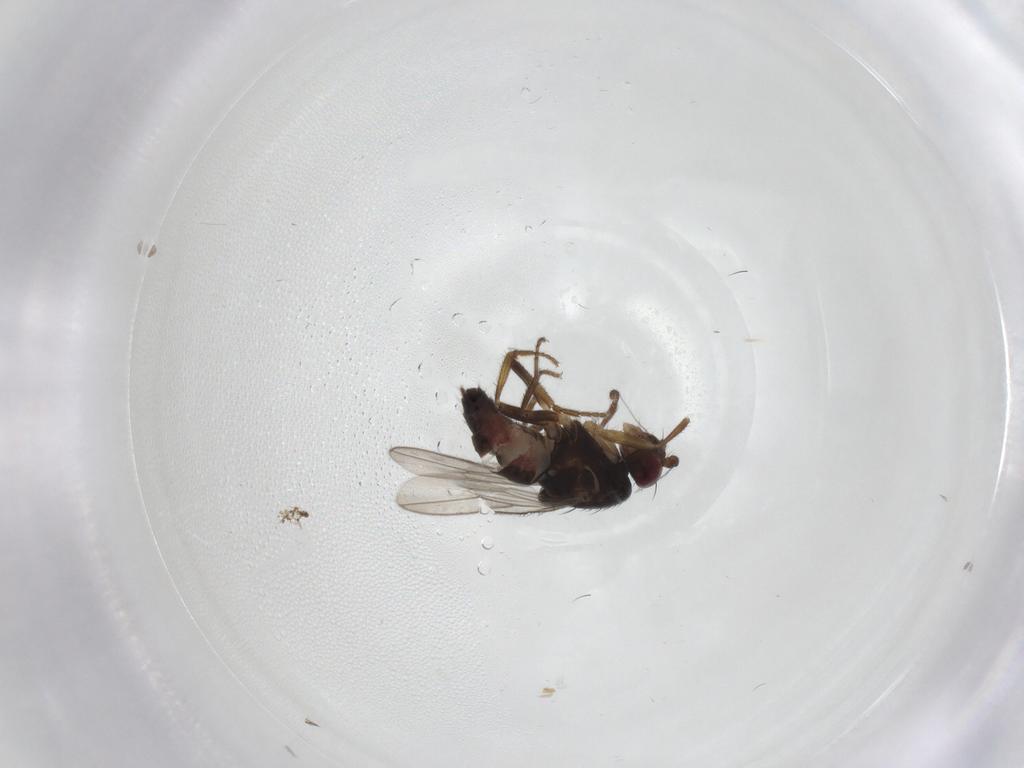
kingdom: Animalia
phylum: Arthropoda
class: Insecta
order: Diptera
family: Sphaeroceridae
